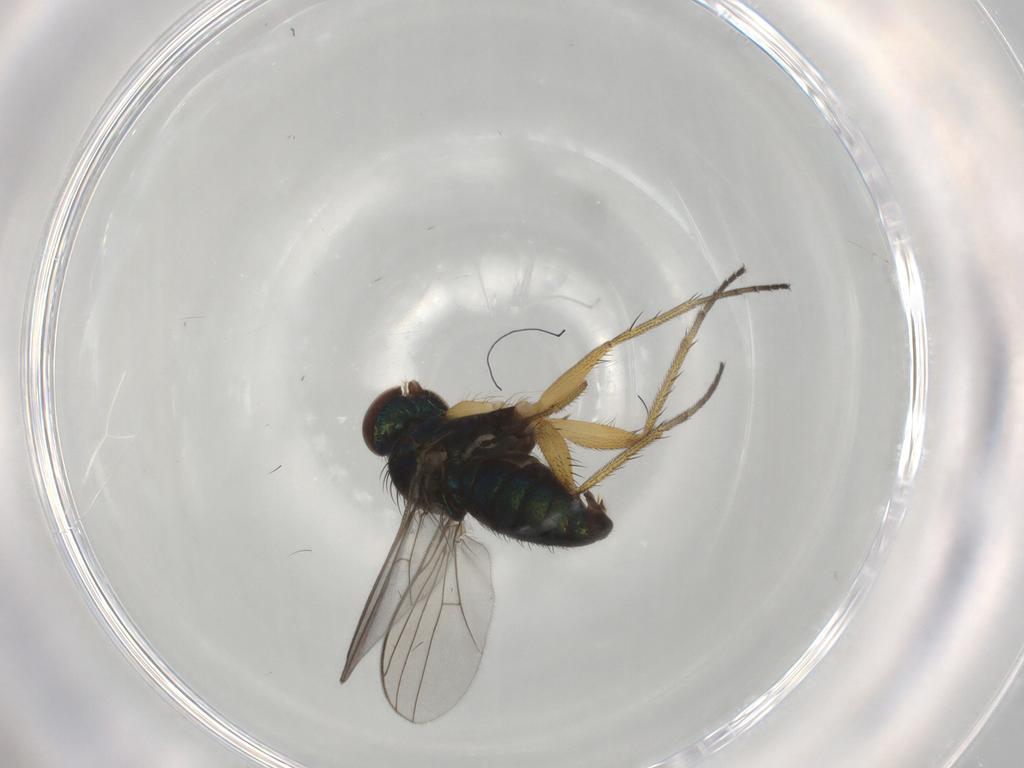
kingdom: Animalia
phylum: Arthropoda
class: Insecta
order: Diptera
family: Dolichopodidae
